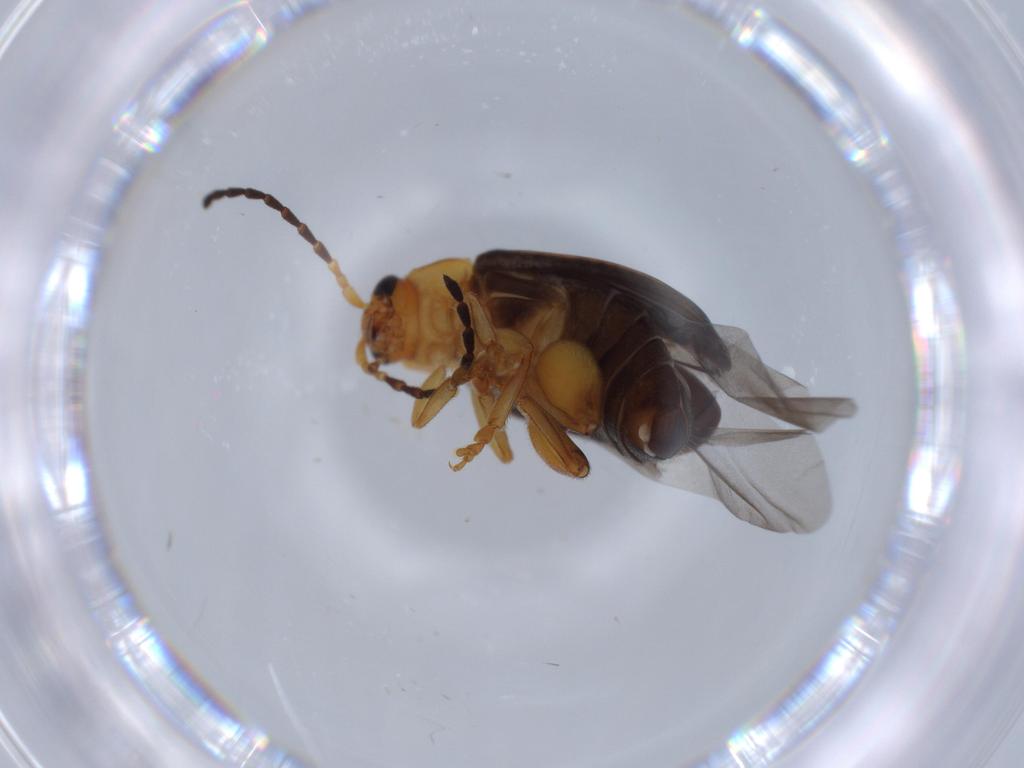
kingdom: Animalia
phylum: Arthropoda
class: Insecta
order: Coleoptera
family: Chrysomelidae
